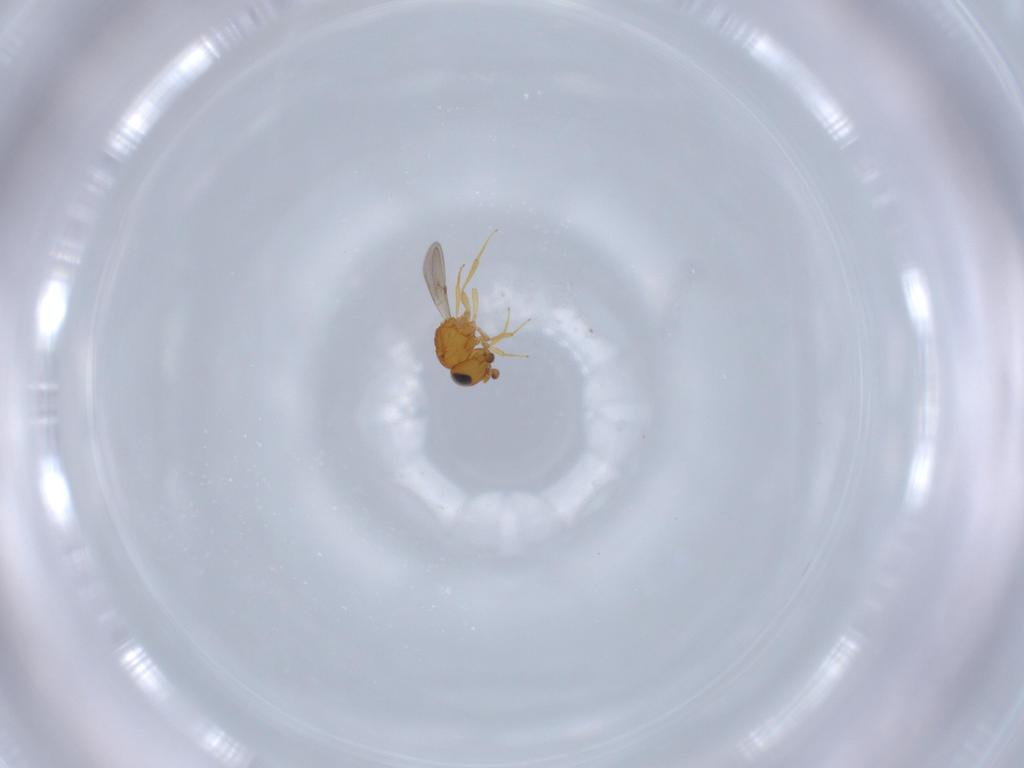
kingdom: Animalia
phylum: Arthropoda
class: Insecta
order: Hymenoptera
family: Scelionidae
